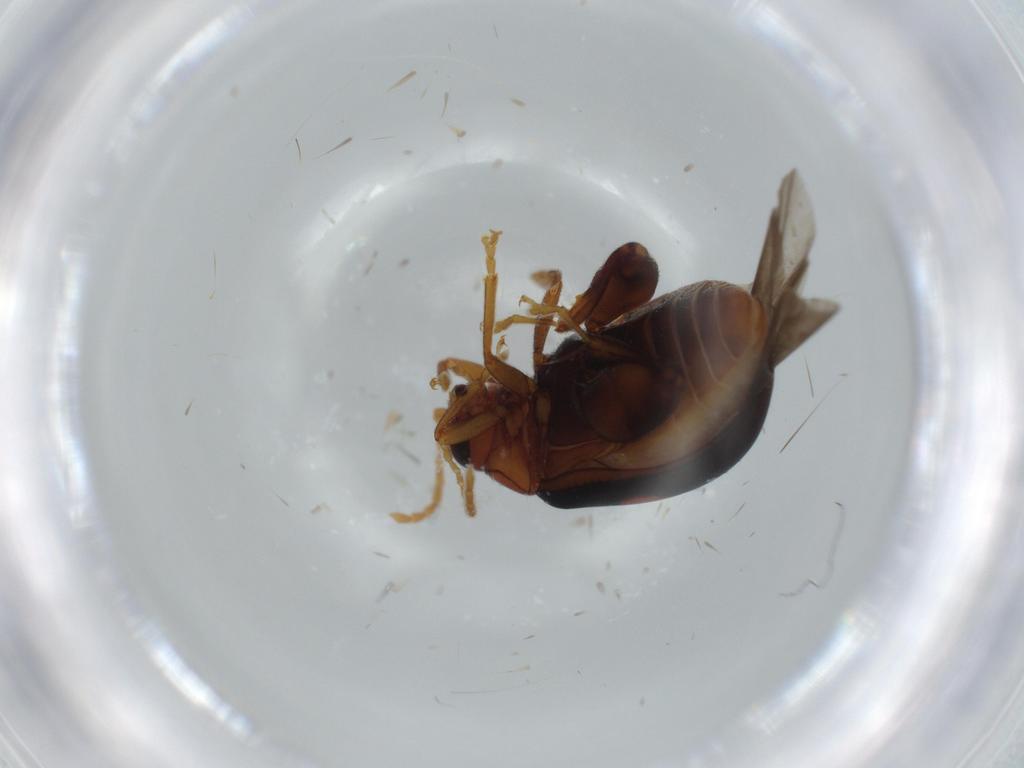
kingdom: Animalia
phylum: Arthropoda
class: Insecta
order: Coleoptera
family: Chrysomelidae
